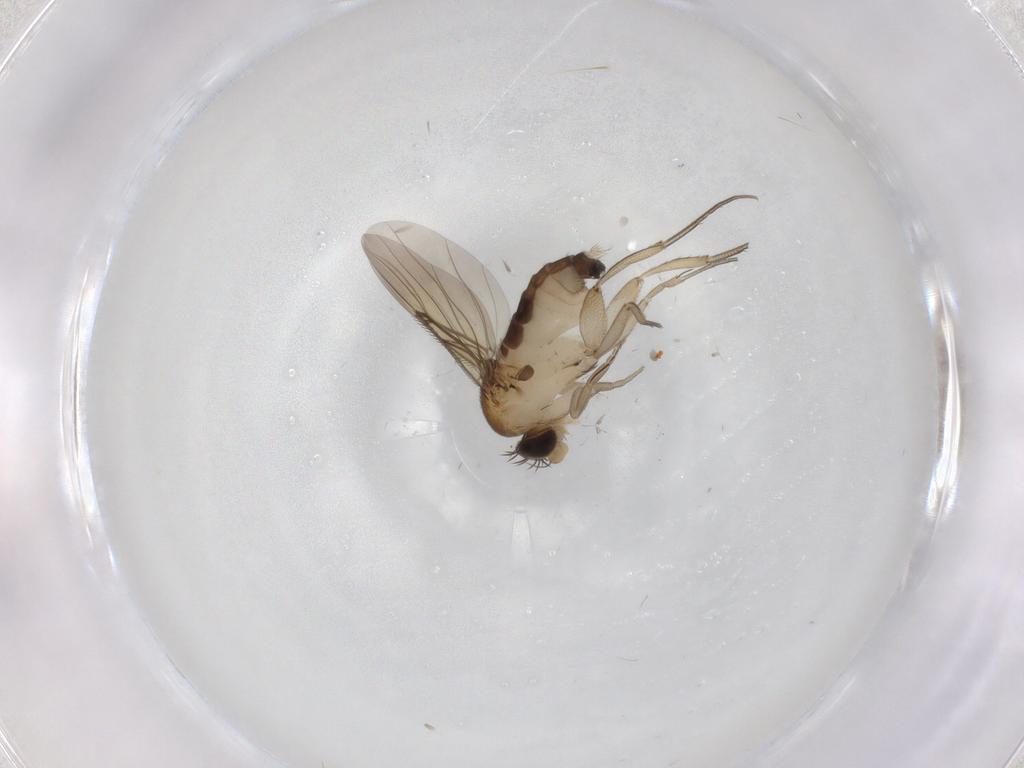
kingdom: Animalia
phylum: Arthropoda
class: Insecta
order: Diptera
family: Phoridae
